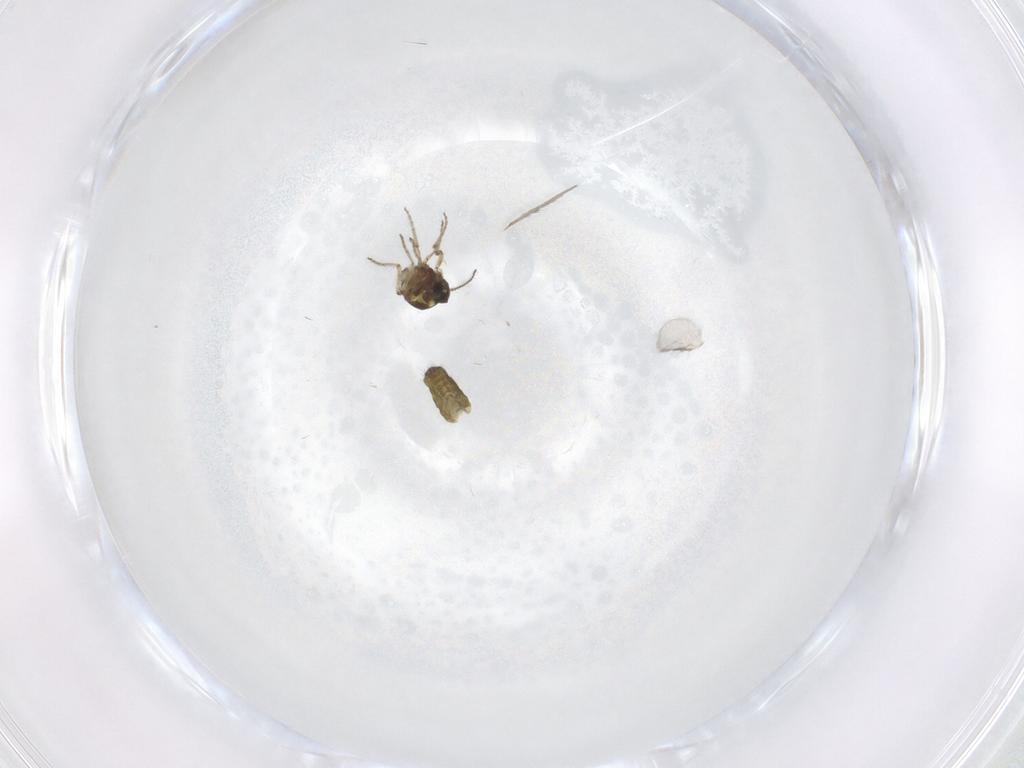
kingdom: Animalia
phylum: Arthropoda
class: Insecta
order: Diptera
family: Ceratopogonidae
